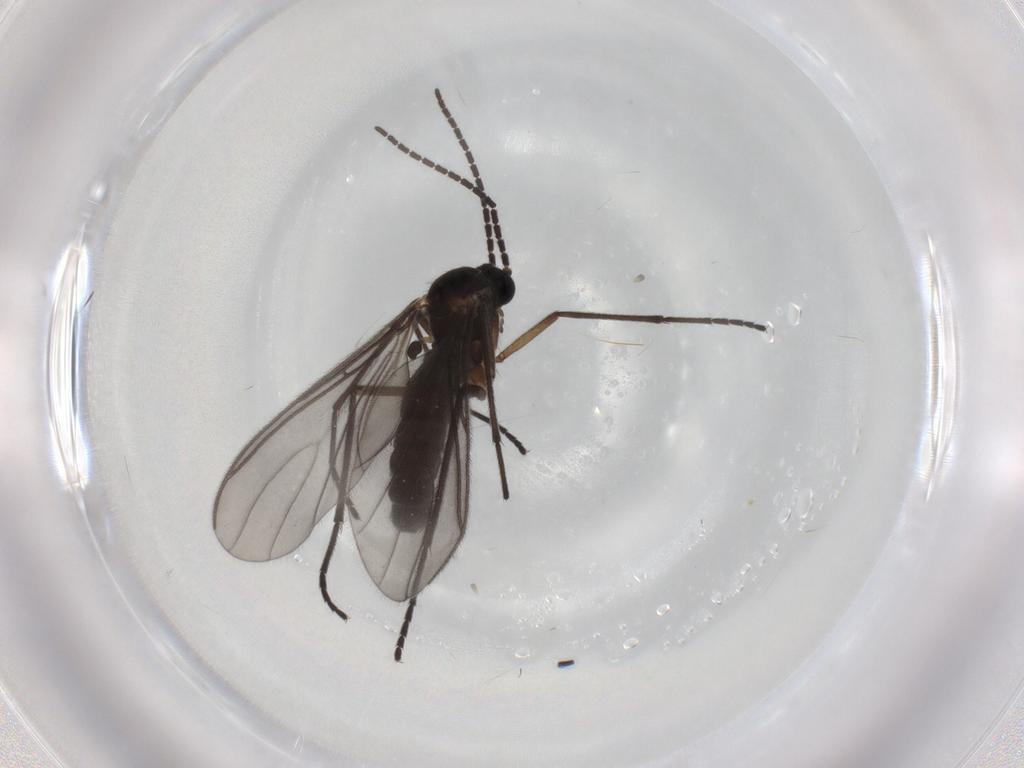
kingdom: Animalia
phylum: Arthropoda
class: Insecta
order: Diptera
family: Sciaridae
